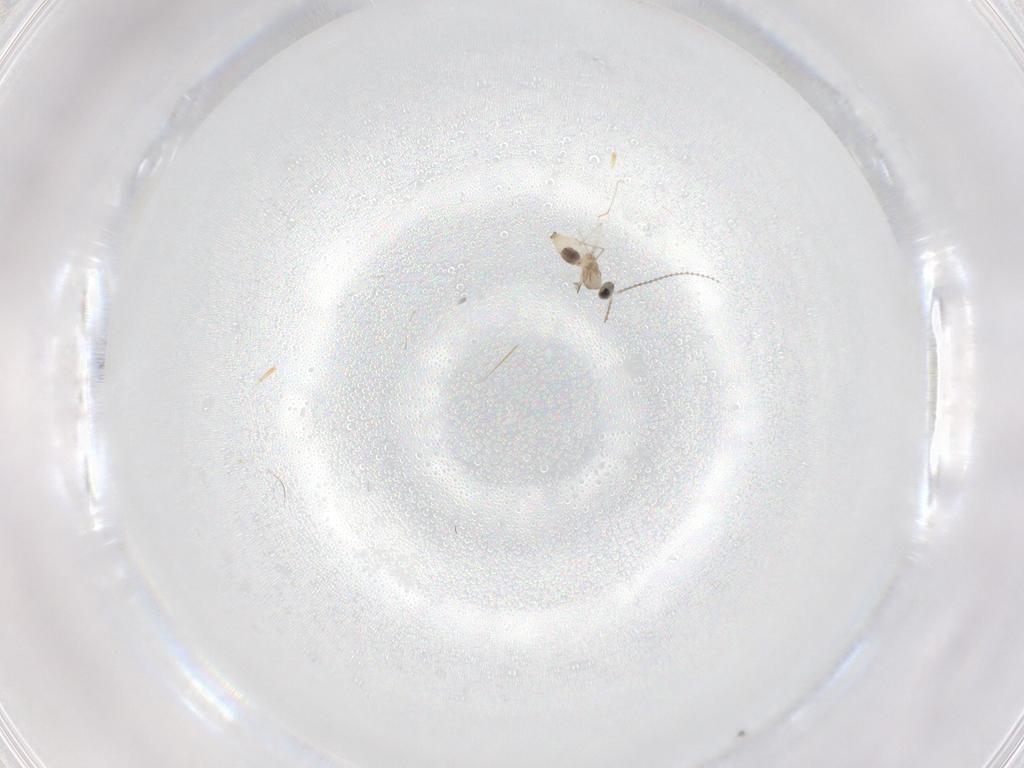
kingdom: Animalia
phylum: Arthropoda
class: Insecta
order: Diptera
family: Cecidomyiidae
